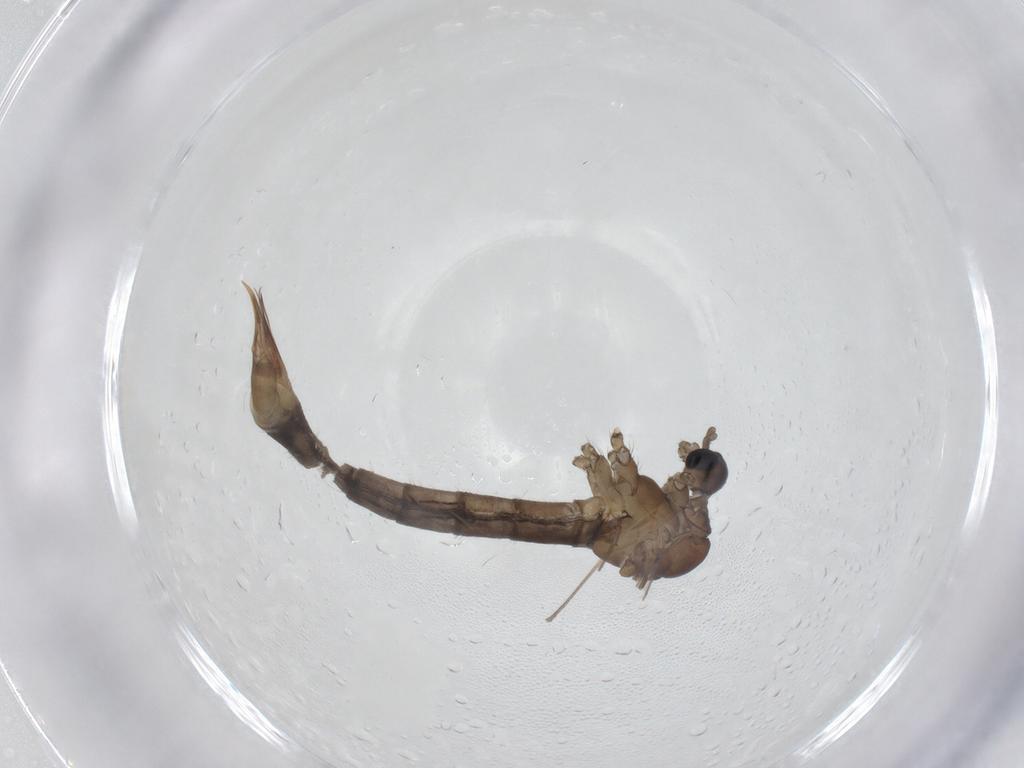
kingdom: Animalia
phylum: Arthropoda
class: Insecta
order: Diptera
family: Limoniidae
